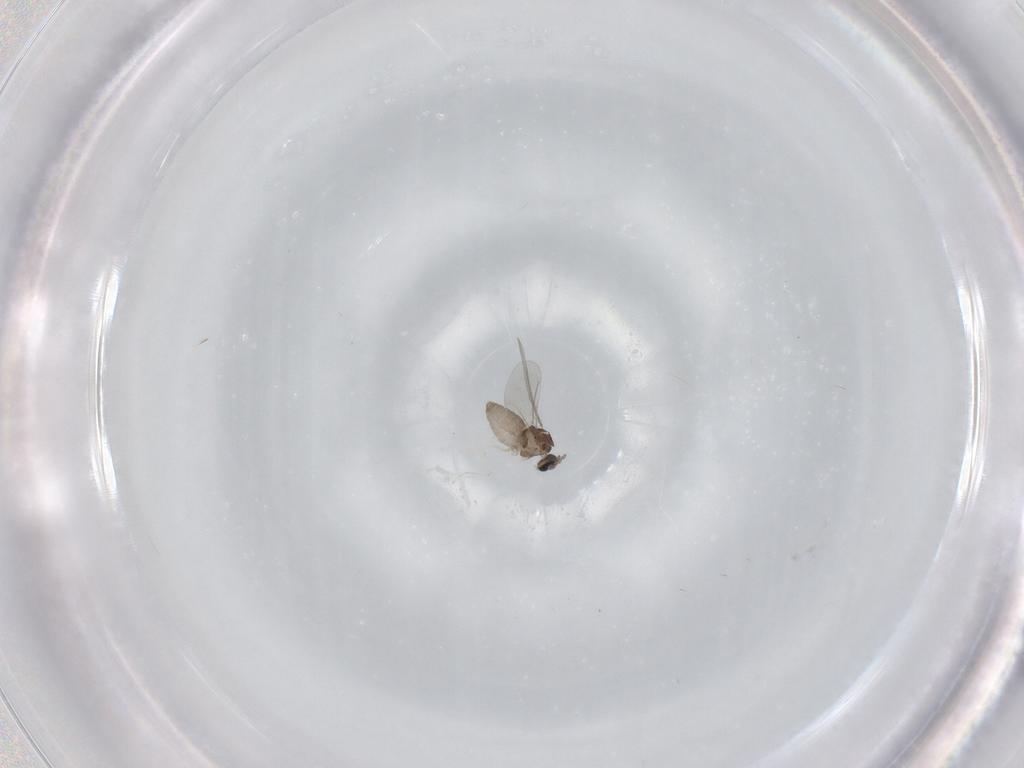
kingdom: Animalia
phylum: Arthropoda
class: Insecta
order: Diptera
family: Cecidomyiidae
